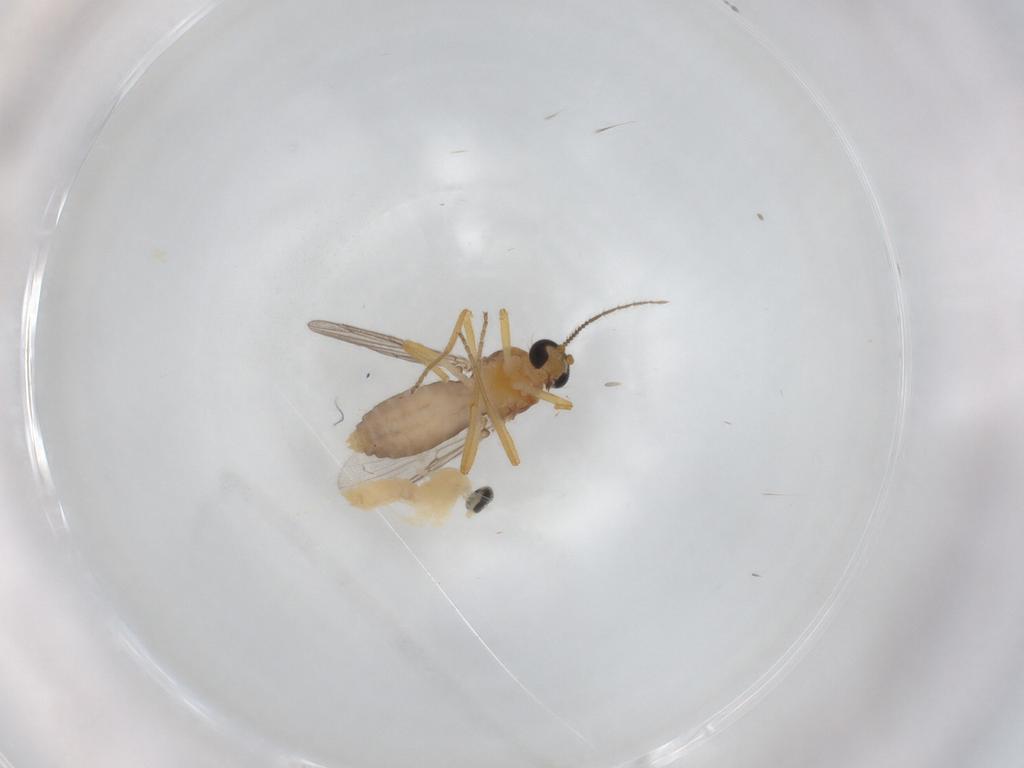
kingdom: Animalia
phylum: Arthropoda
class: Insecta
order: Diptera
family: Cecidomyiidae
